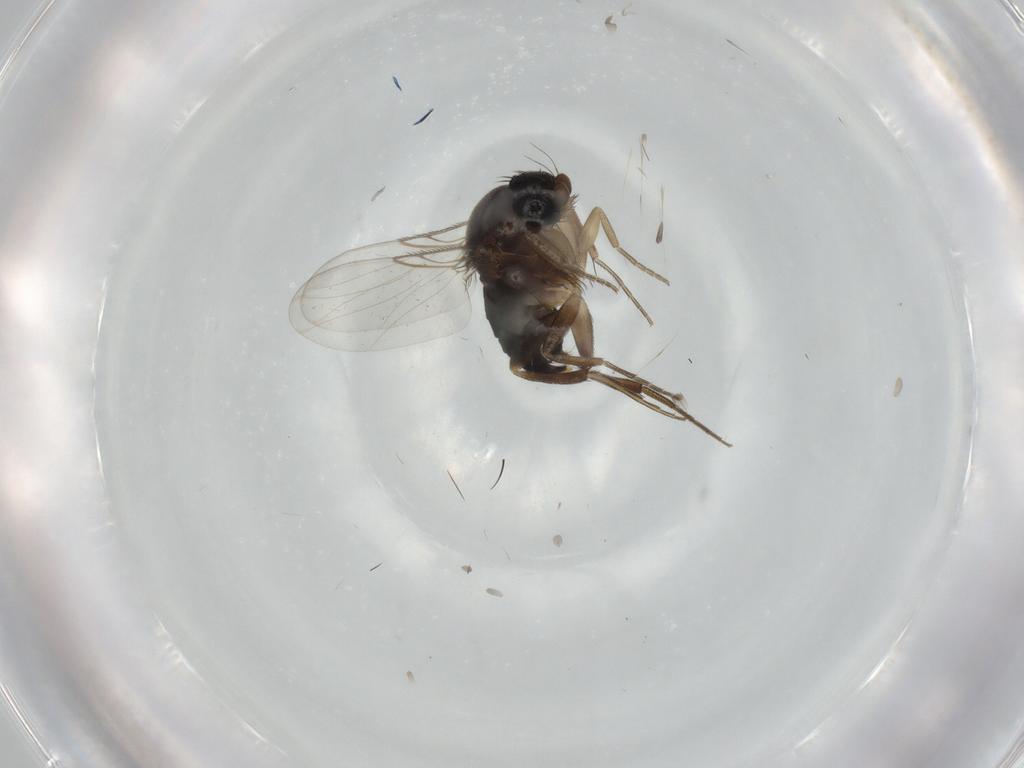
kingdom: Animalia
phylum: Arthropoda
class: Insecta
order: Diptera
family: Phoridae
